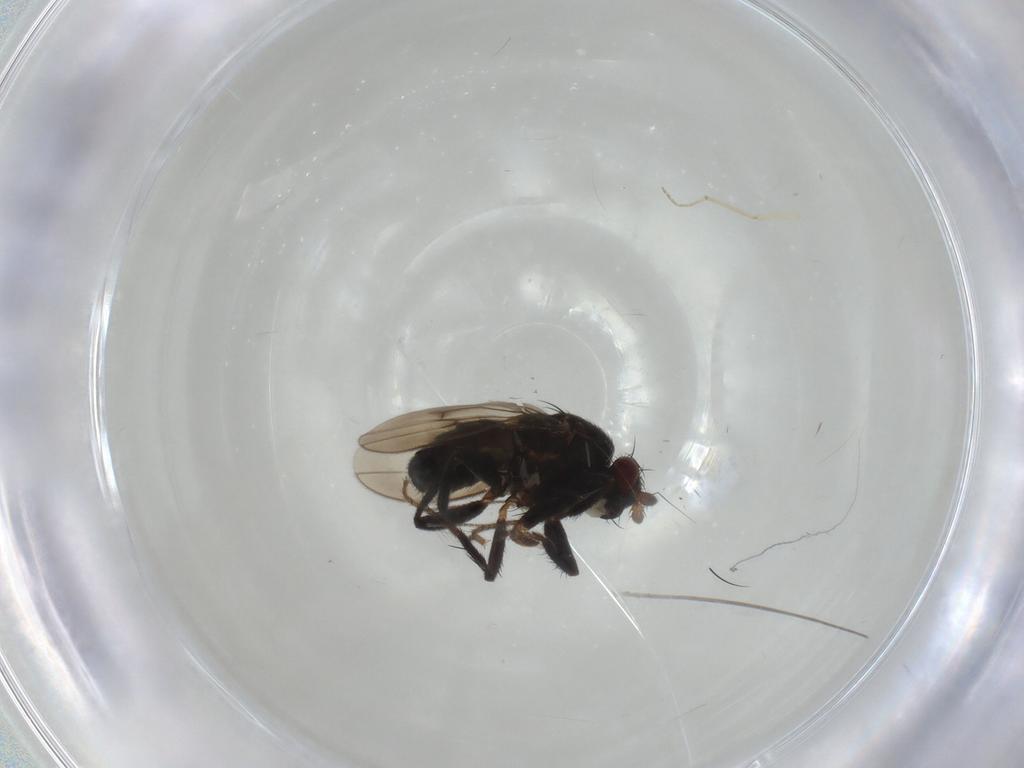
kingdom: Animalia
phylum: Arthropoda
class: Insecta
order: Diptera
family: Sphaeroceridae
